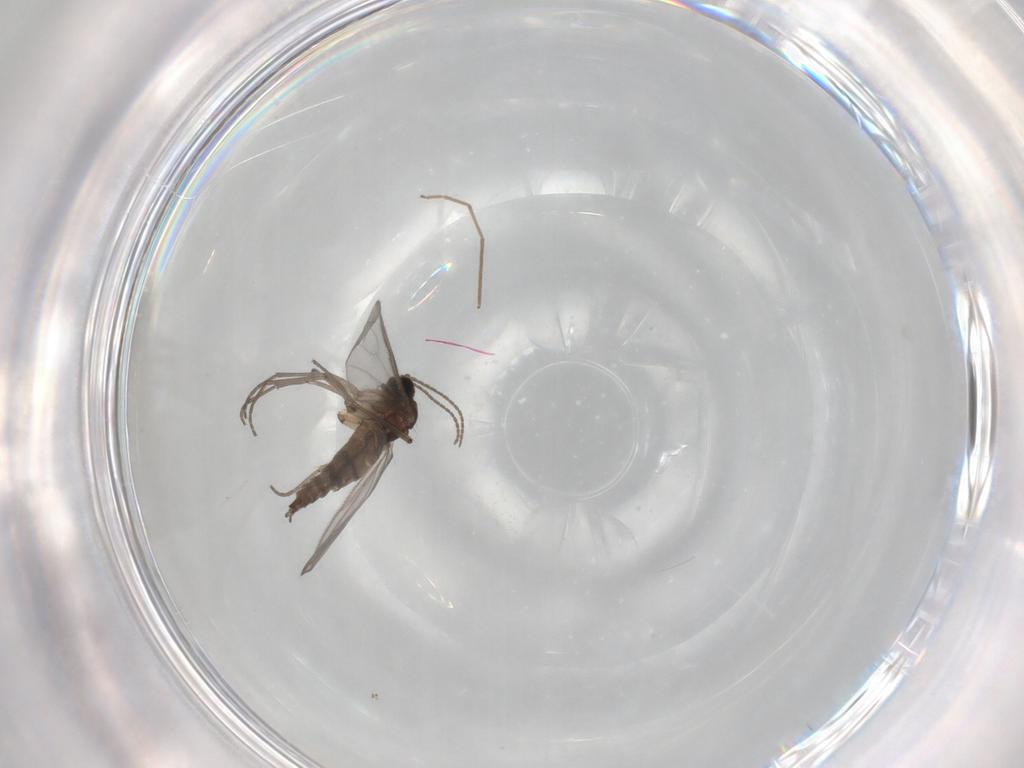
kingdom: Animalia
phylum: Arthropoda
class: Insecta
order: Diptera
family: Sciaridae
